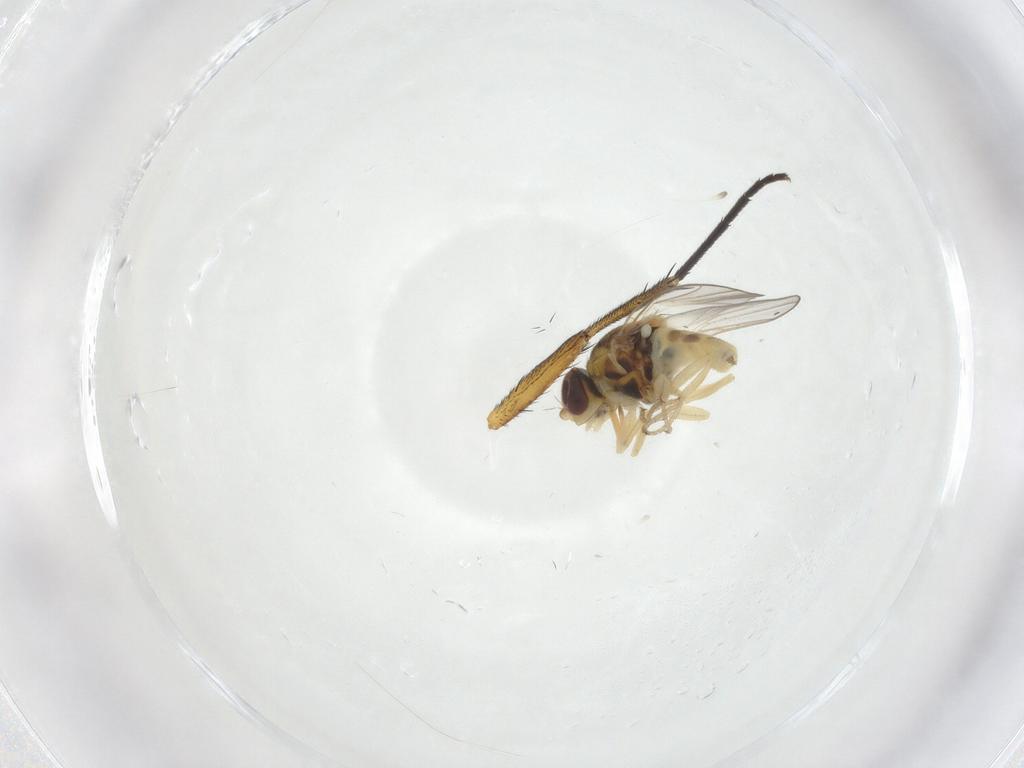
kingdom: Animalia
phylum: Arthropoda
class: Insecta
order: Diptera
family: Chloropidae
